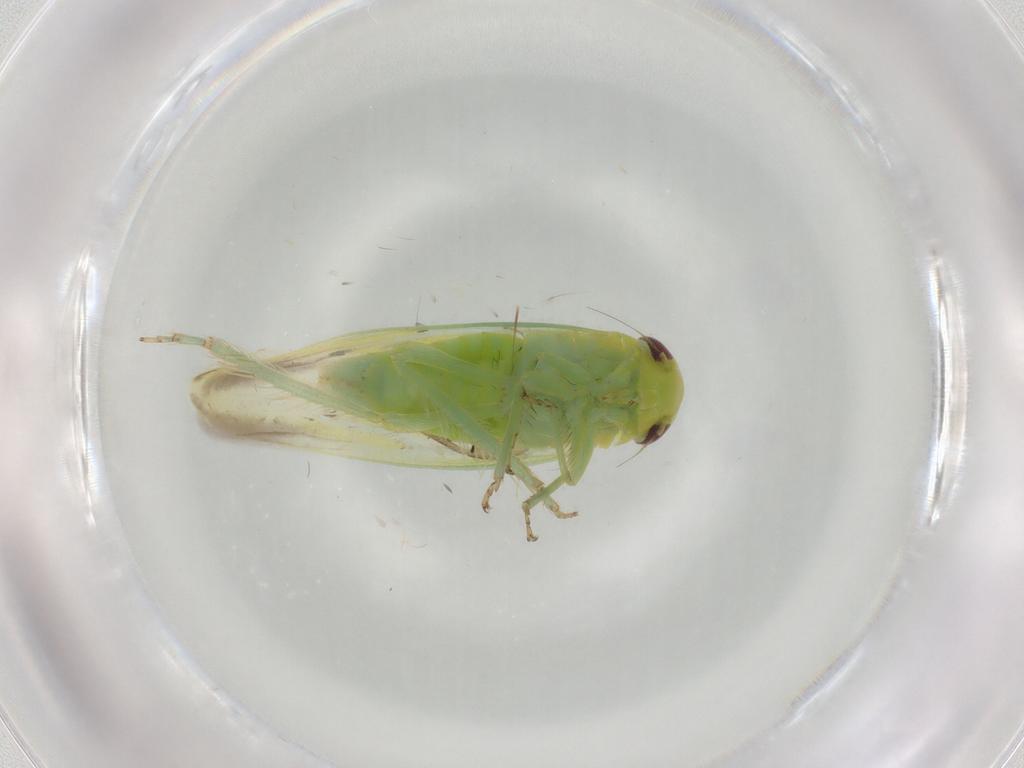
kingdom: Animalia
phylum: Arthropoda
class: Insecta
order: Hemiptera
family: Cicadellidae
